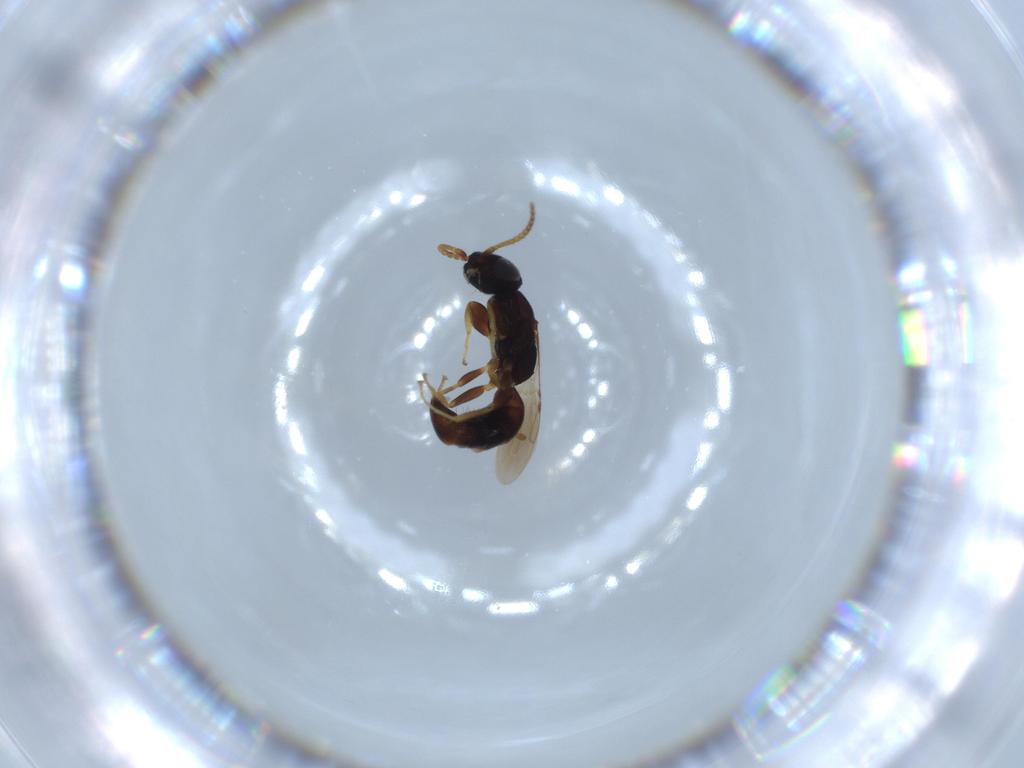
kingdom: Animalia
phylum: Arthropoda
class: Insecta
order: Hymenoptera
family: Bethylidae
